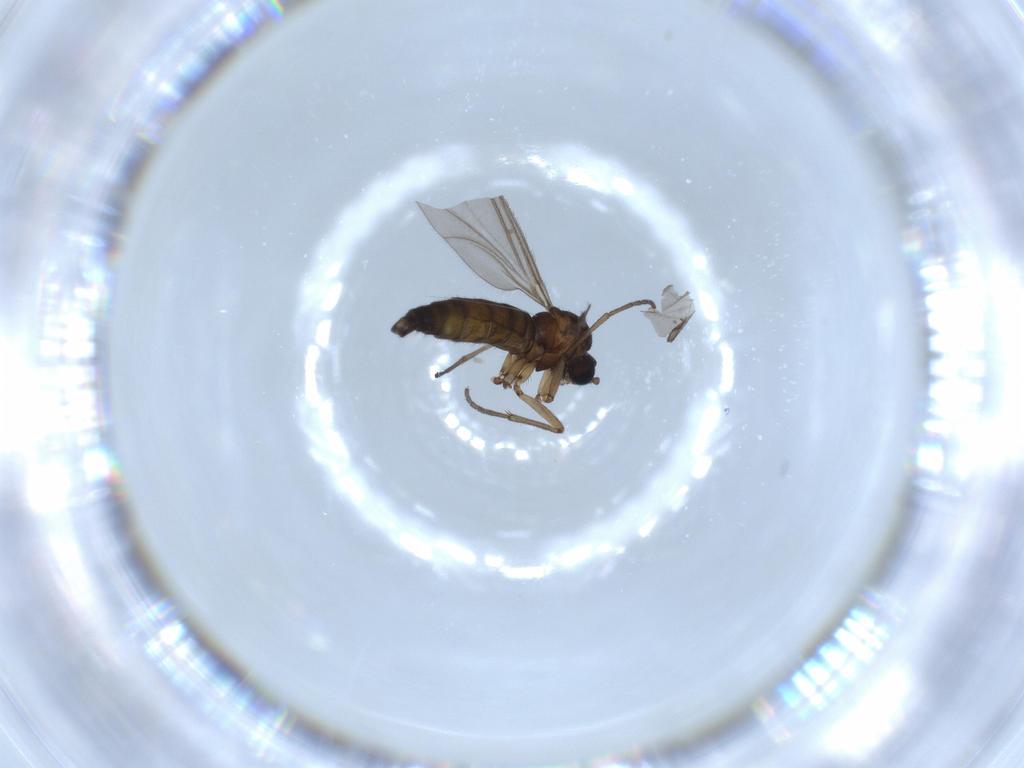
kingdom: Animalia
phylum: Arthropoda
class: Insecta
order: Diptera
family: Sciaridae
